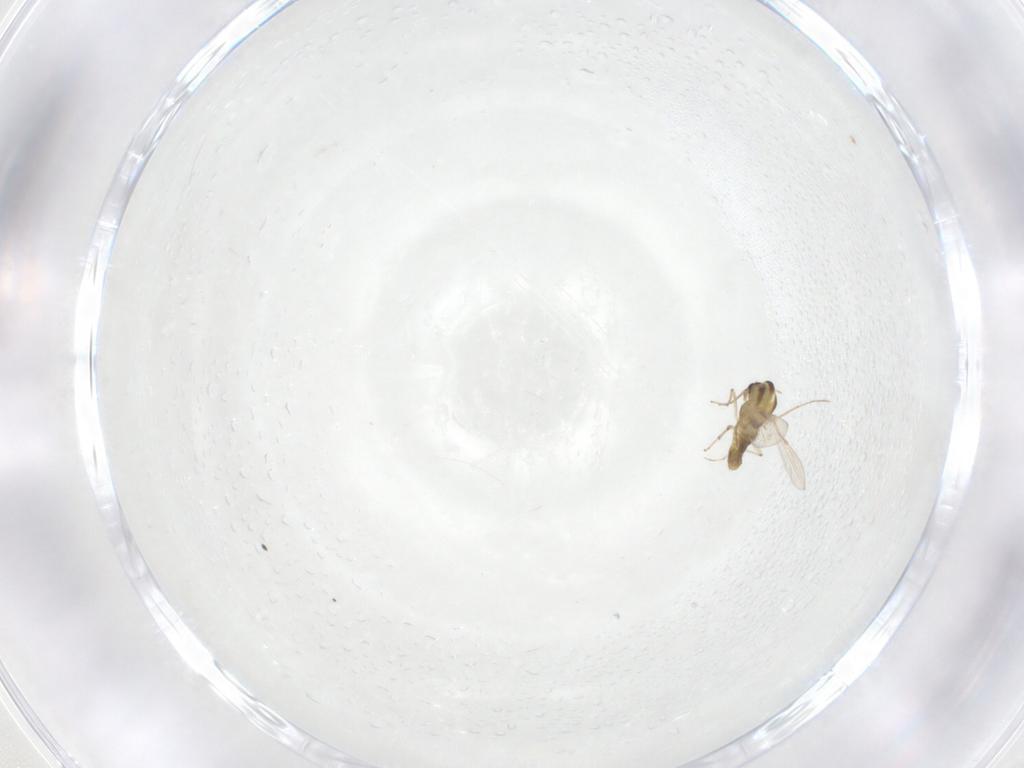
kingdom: Animalia
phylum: Arthropoda
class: Insecta
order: Diptera
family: Chironomidae
